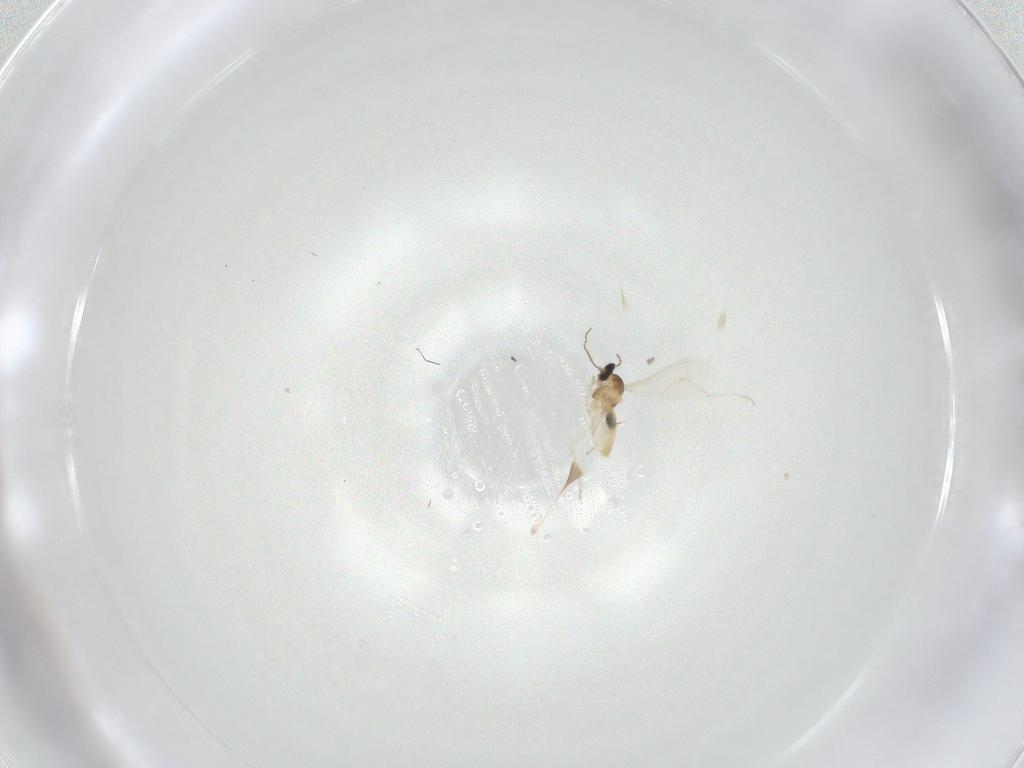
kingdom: Animalia
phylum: Arthropoda
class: Insecta
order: Diptera
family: Cecidomyiidae
